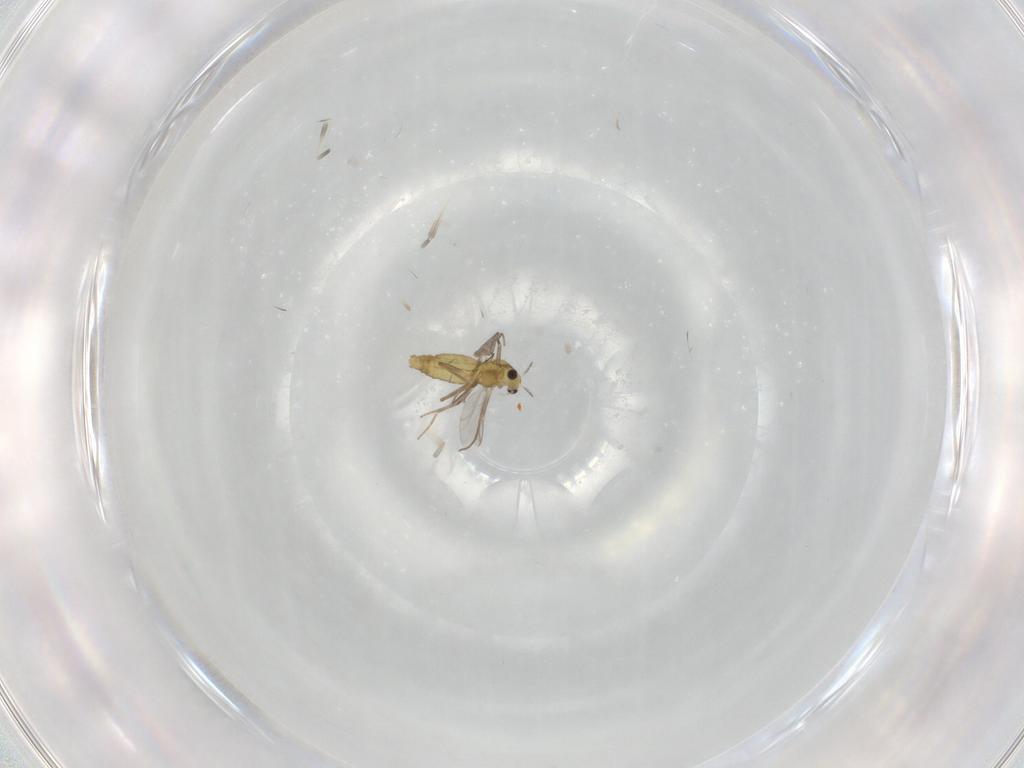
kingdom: Animalia
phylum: Arthropoda
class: Insecta
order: Diptera
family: Chironomidae
